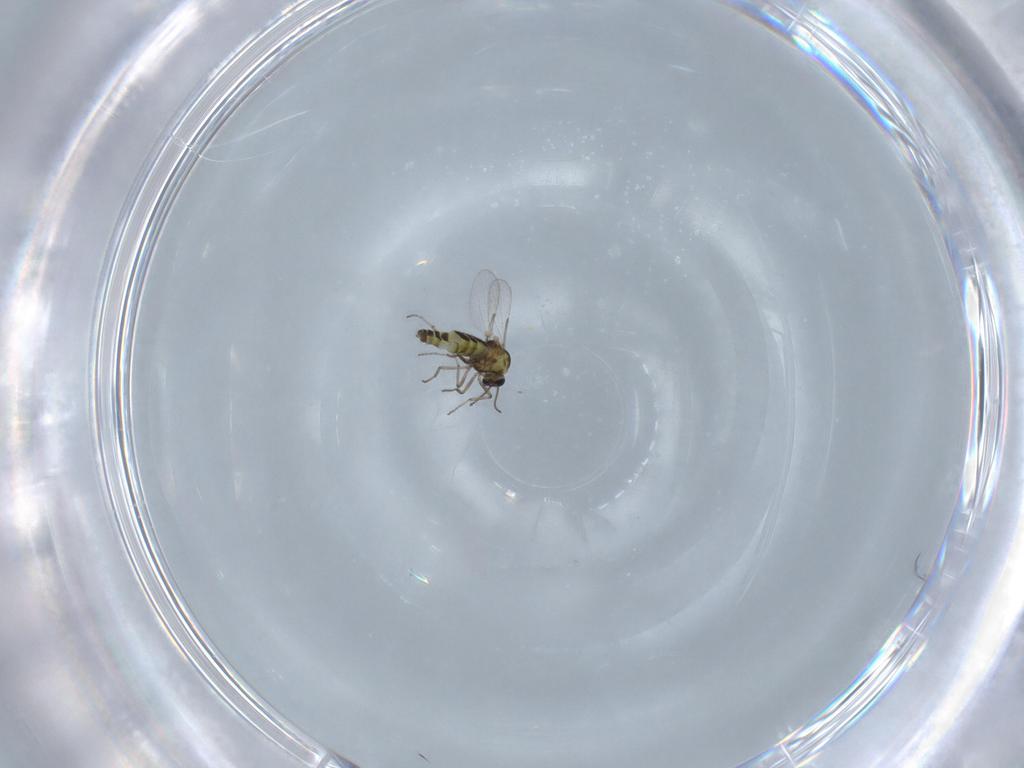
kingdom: Animalia
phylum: Arthropoda
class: Insecta
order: Diptera
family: Ceratopogonidae
